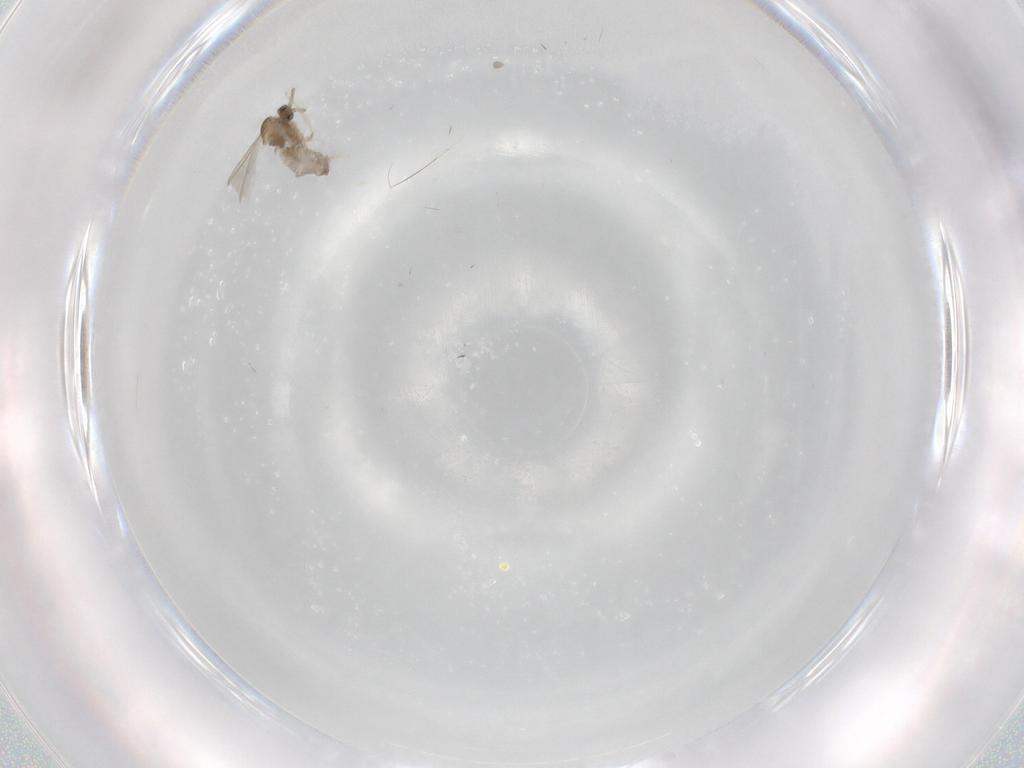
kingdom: Animalia
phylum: Arthropoda
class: Insecta
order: Diptera
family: Cecidomyiidae
